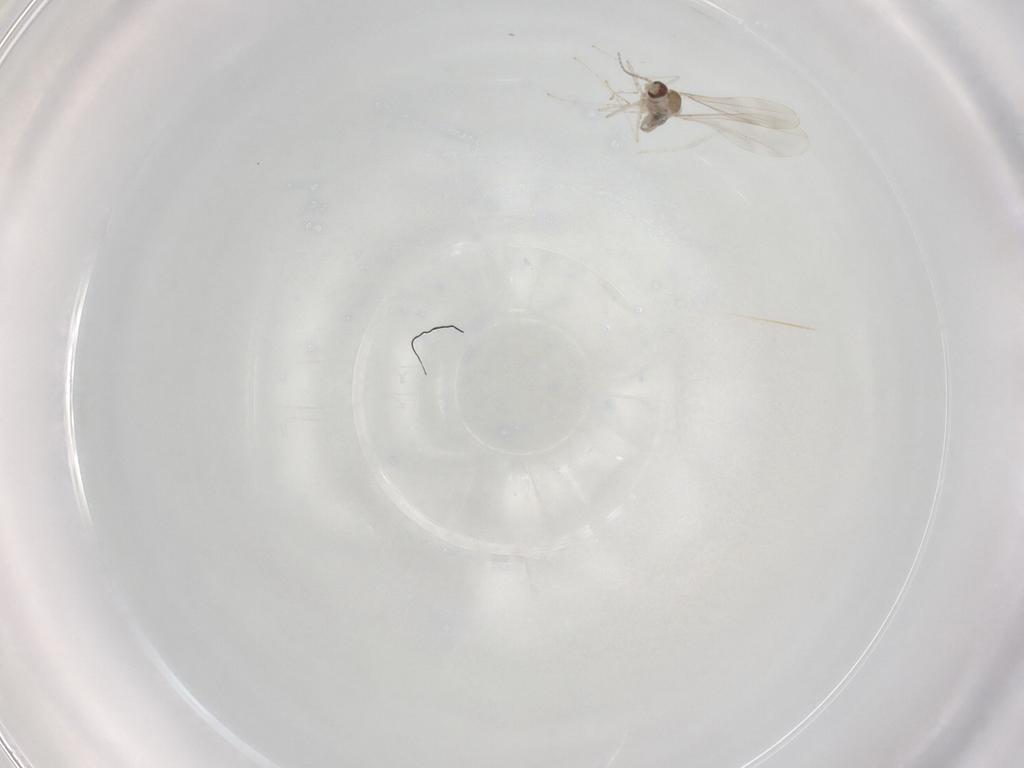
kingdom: Animalia
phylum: Arthropoda
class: Insecta
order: Diptera
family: Cecidomyiidae
